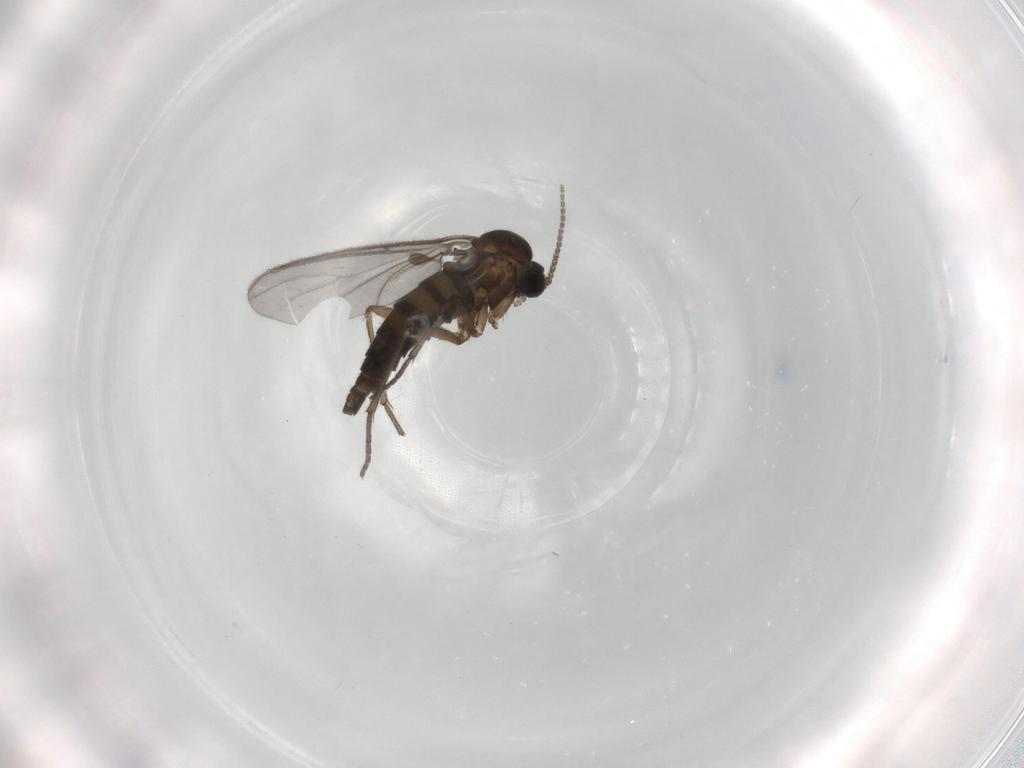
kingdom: Animalia
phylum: Arthropoda
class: Insecta
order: Diptera
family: Sciaridae
